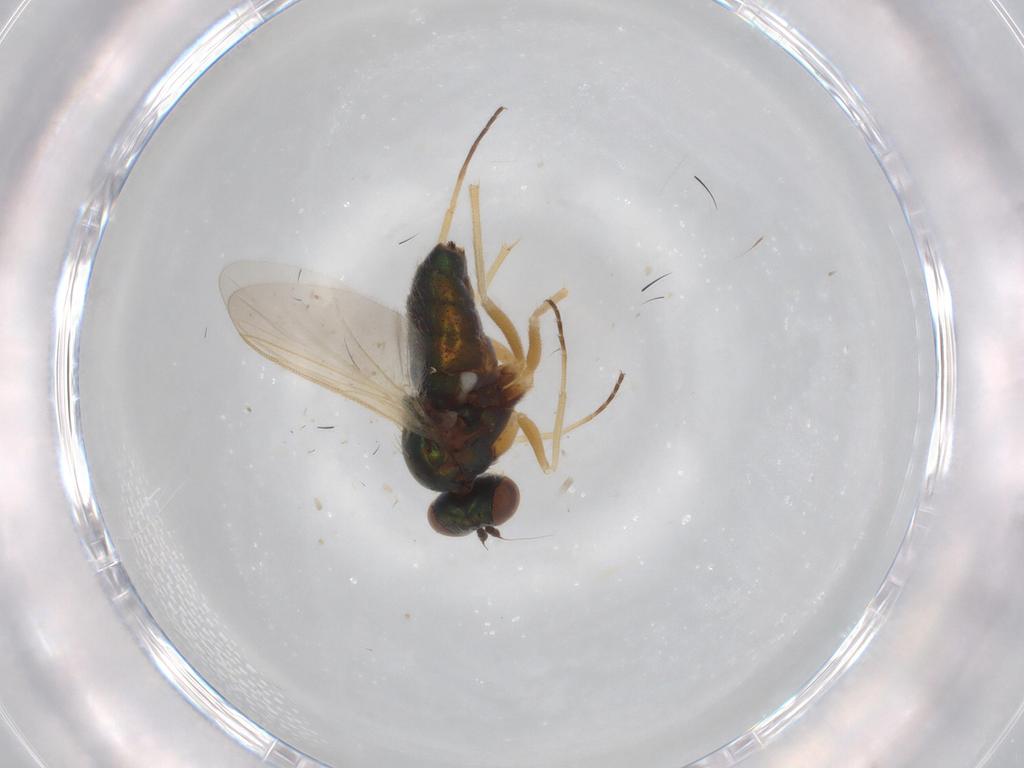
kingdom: Animalia
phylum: Arthropoda
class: Insecta
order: Diptera
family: Dolichopodidae
